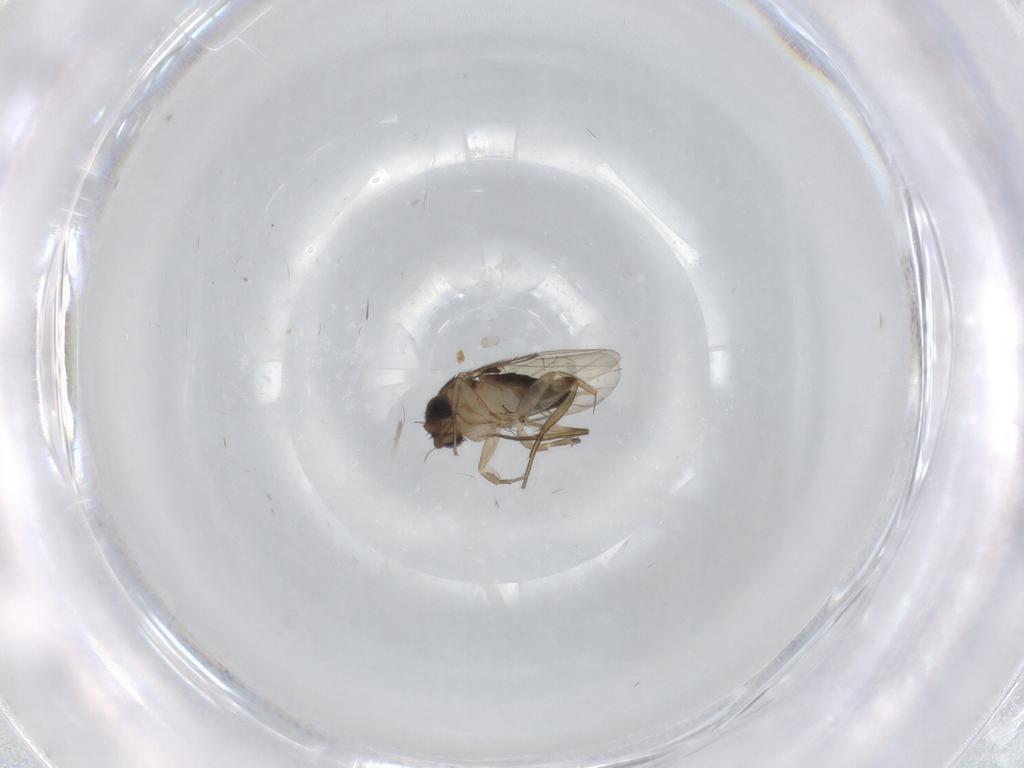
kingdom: Animalia
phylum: Arthropoda
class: Insecta
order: Diptera
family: Phoridae
